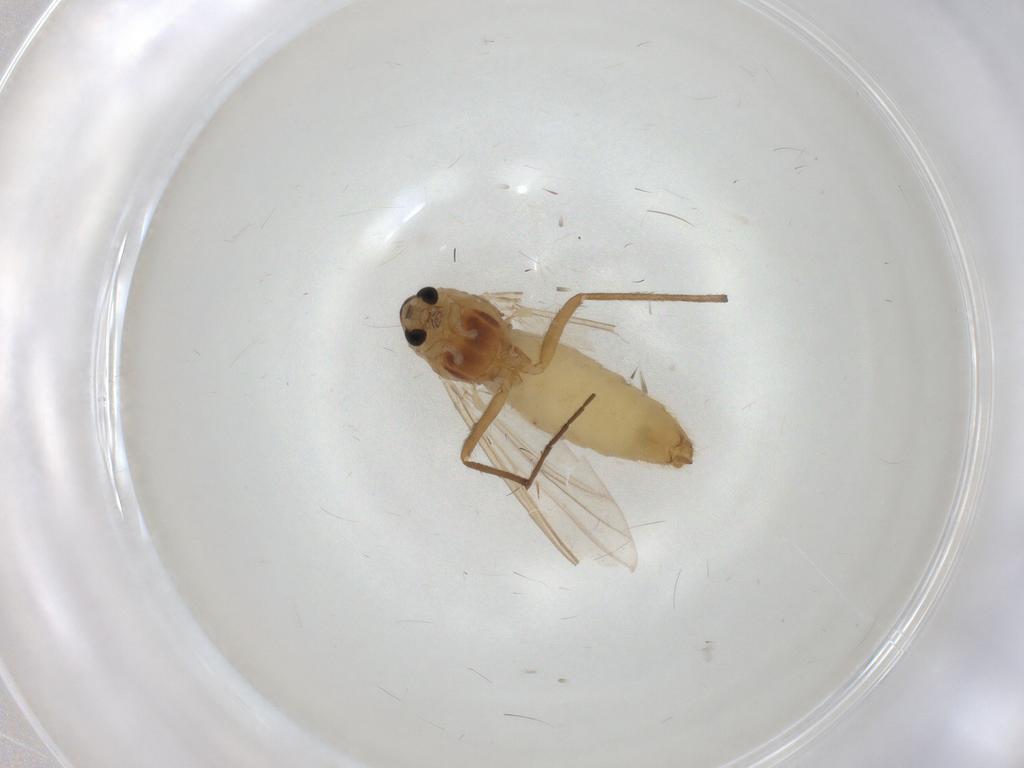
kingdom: Animalia
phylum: Arthropoda
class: Insecta
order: Diptera
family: Chironomidae
